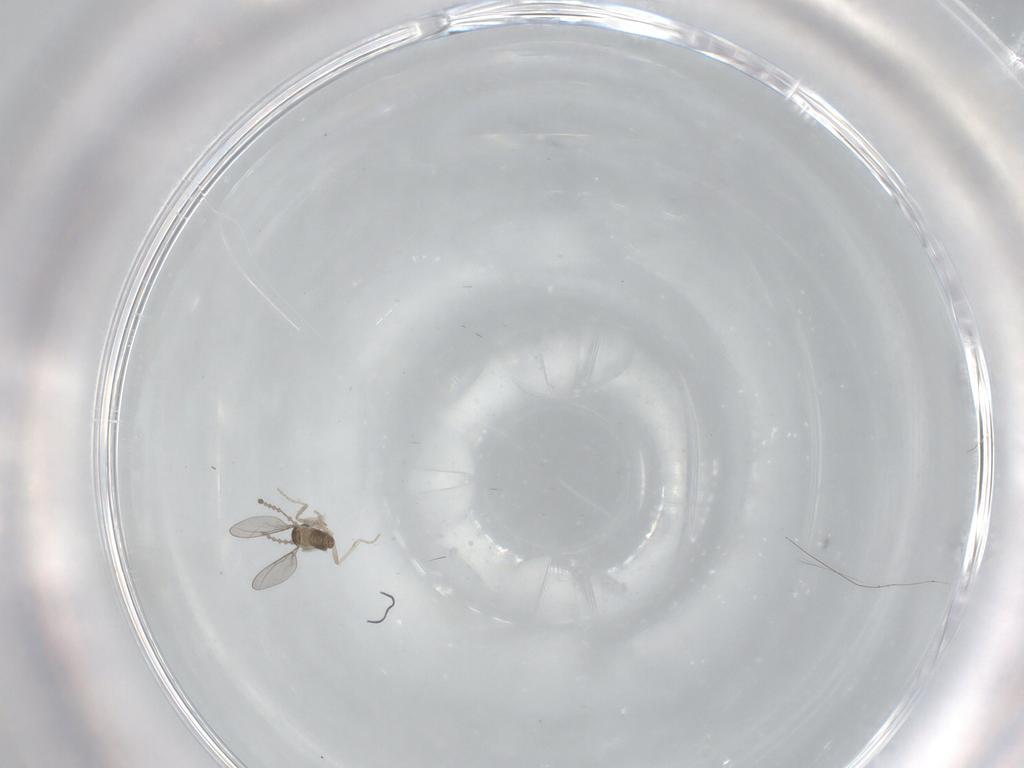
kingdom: Animalia
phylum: Arthropoda
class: Insecta
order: Diptera
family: Cecidomyiidae
